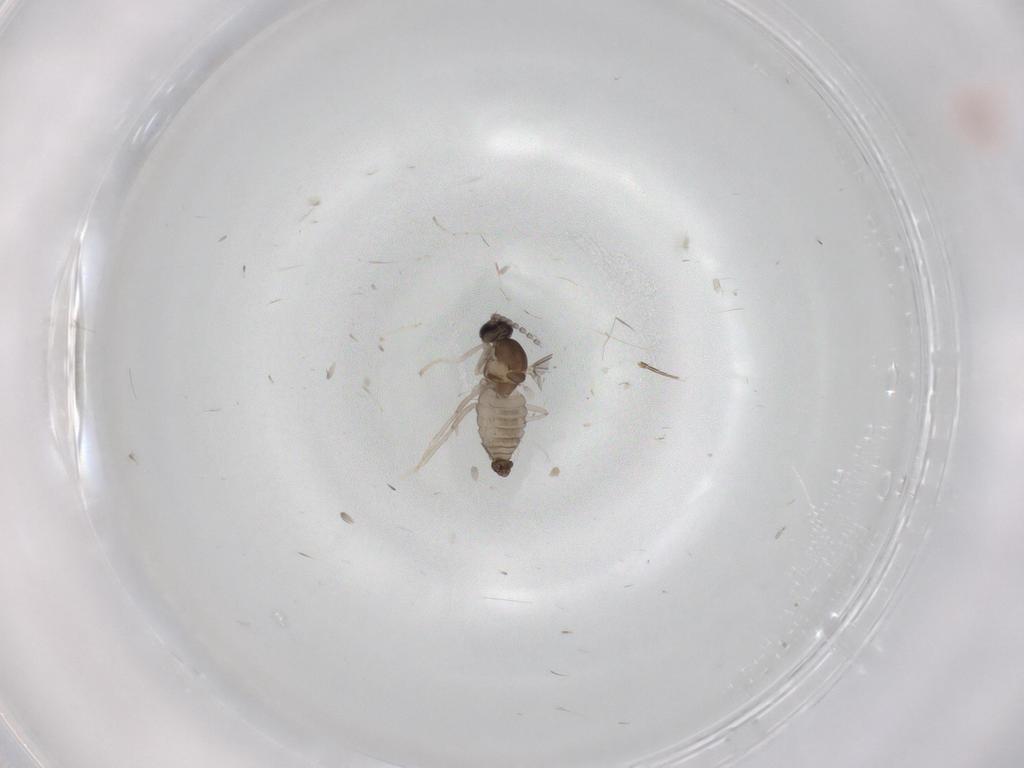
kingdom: Animalia
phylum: Arthropoda
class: Insecta
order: Diptera
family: Cecidomyiidae
